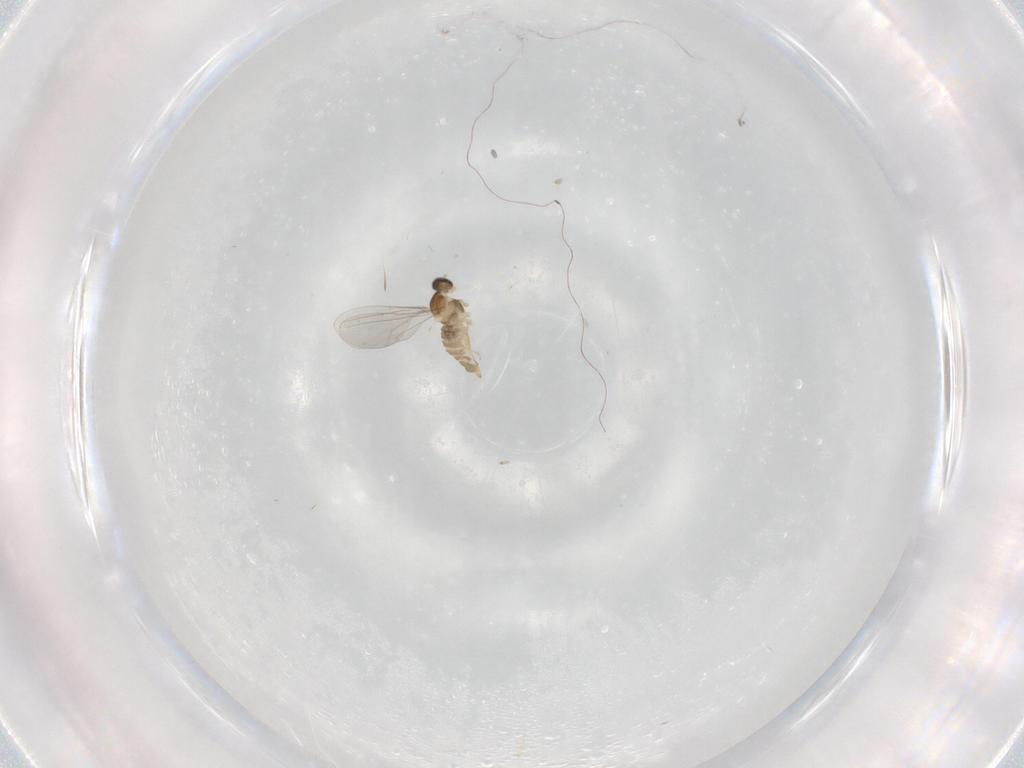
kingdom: Animalia
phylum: Arthropoda
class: Insecta
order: Diptera
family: Cecidomyiidae
